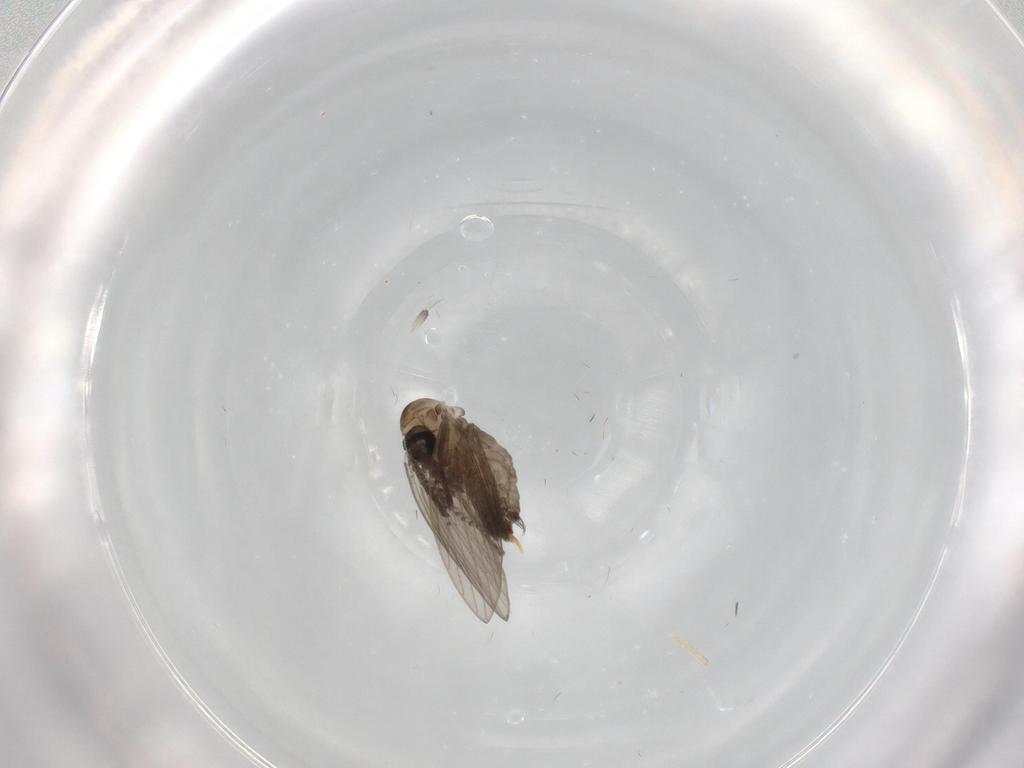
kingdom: Animalia
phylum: Arthropoda
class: Insecta
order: Diptera
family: Psychodidae
